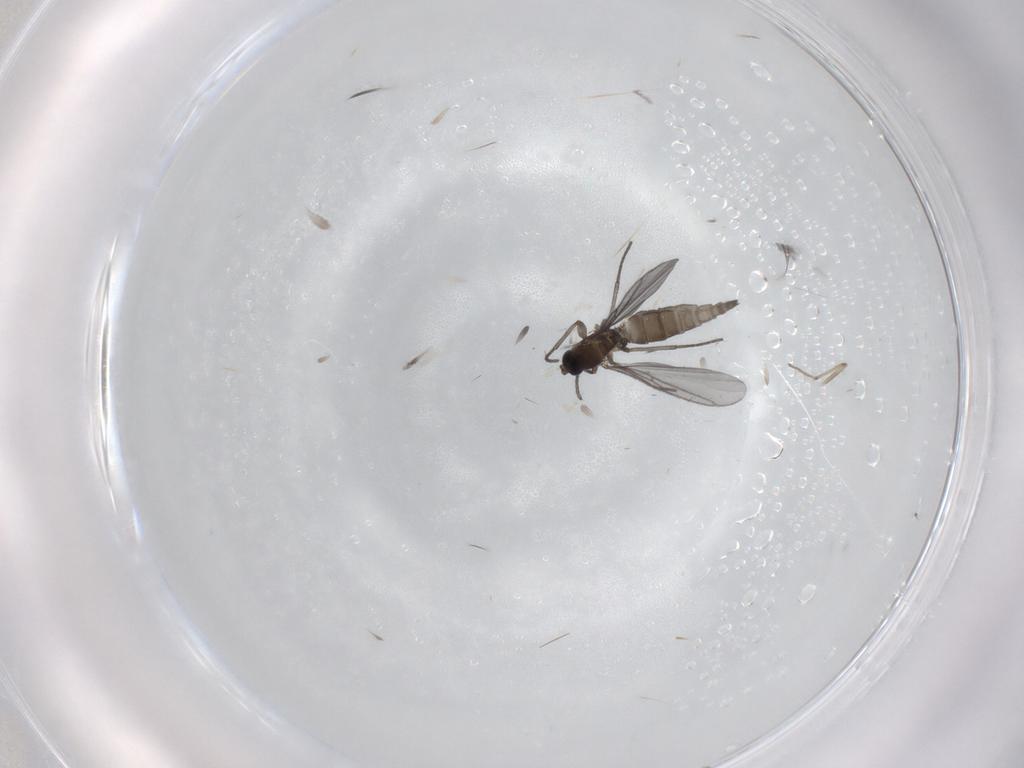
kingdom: Animalia
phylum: Arthropoda
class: Insecta
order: Diptera
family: Sciaridae
